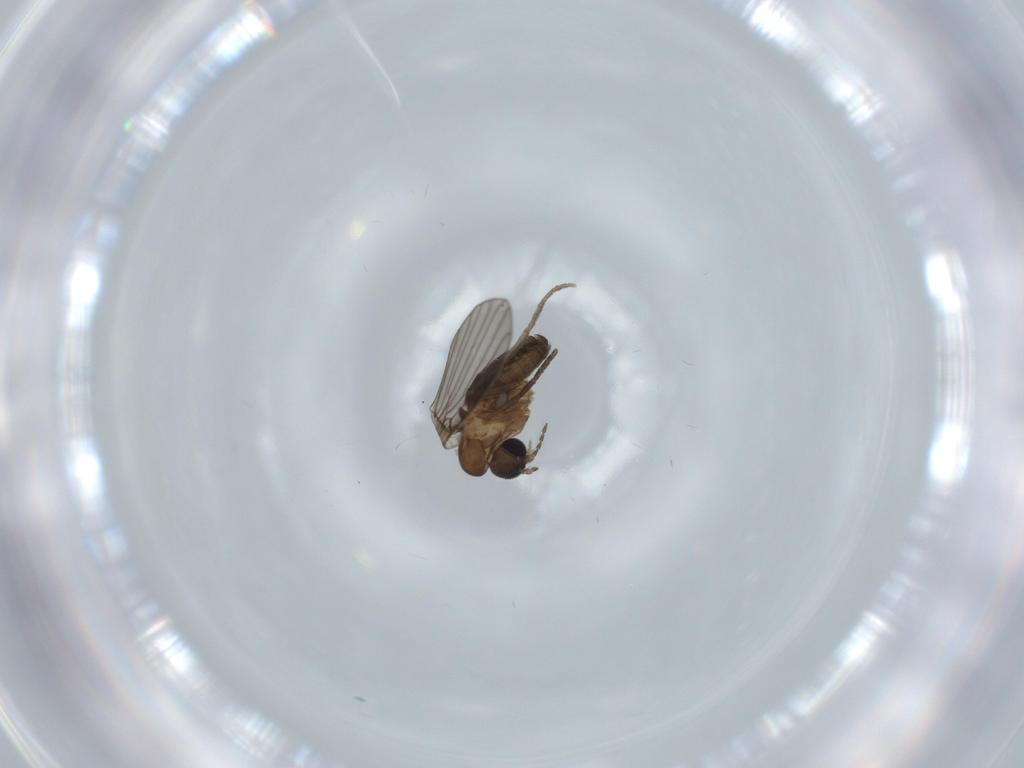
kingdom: Animalia
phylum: Arthropoda
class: Insecta
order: Diptera
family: Psychodidae
